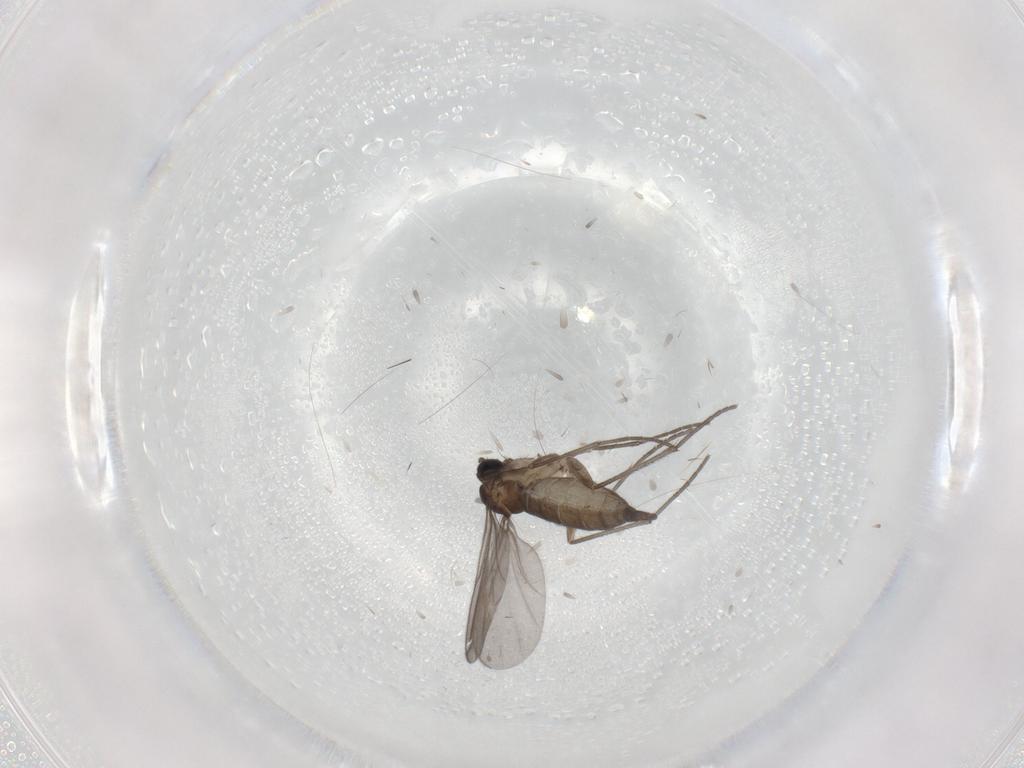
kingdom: Animalia
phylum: Arthropoda
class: Insecta
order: Diptera
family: Sciaridae
